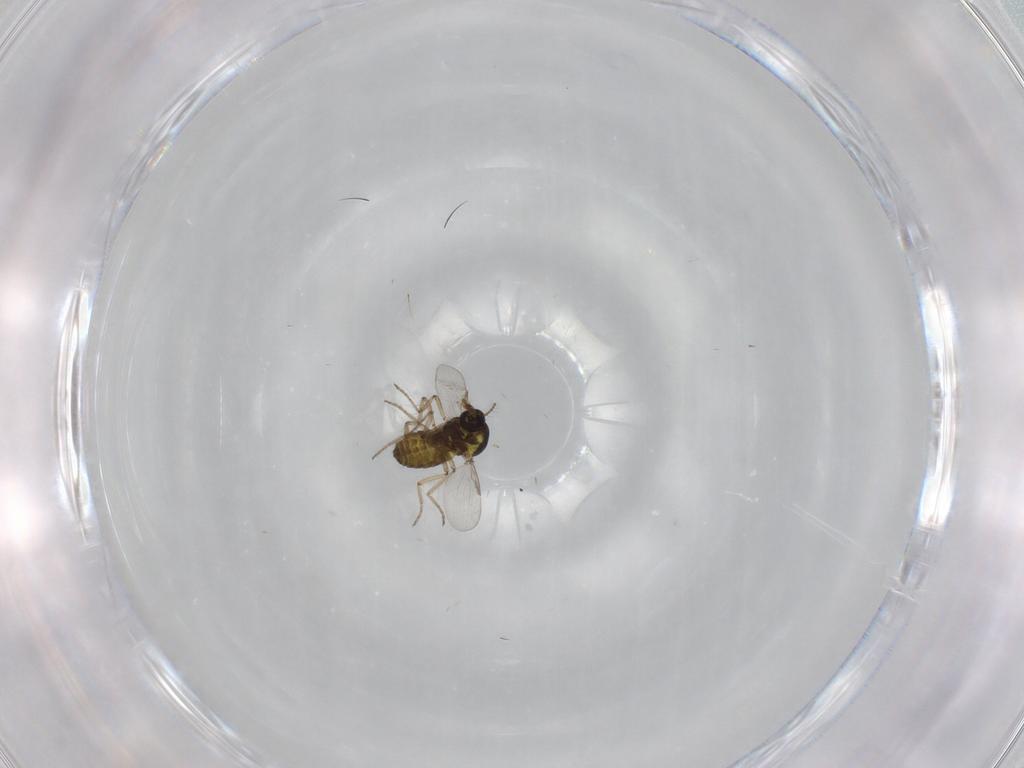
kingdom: Animalia
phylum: Arthropoda
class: Insecta
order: Diptera
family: Ceratopogonidae
